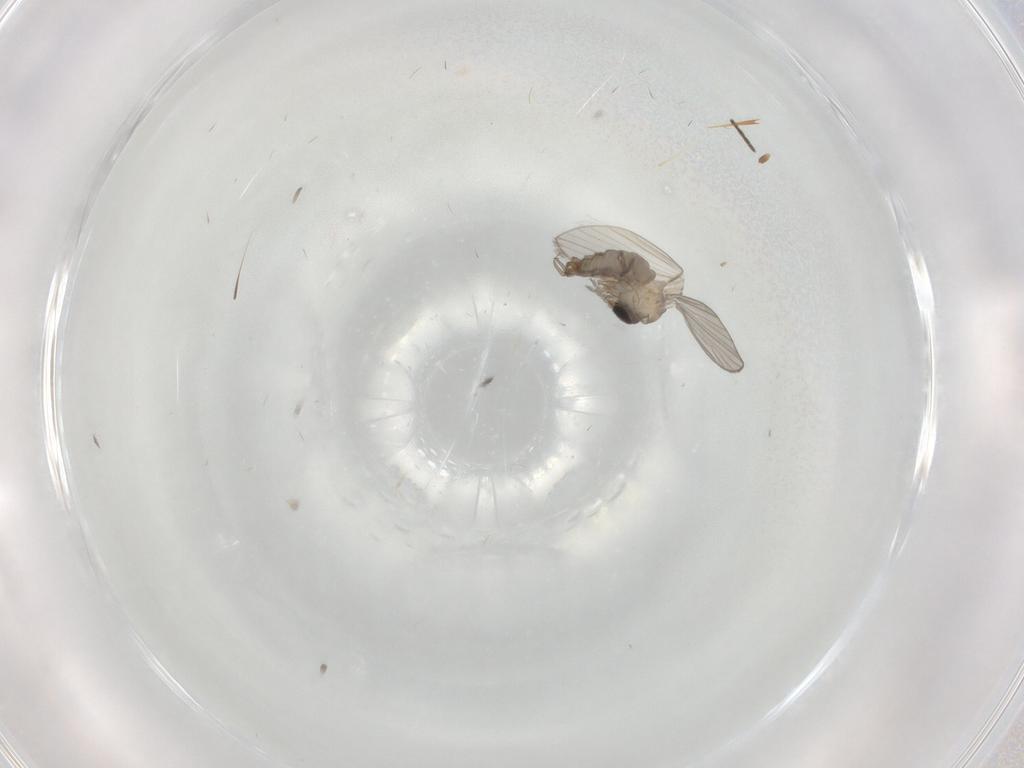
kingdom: Animalia
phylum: Arthropoda
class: Insecta
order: Diptera
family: Psychodidae
